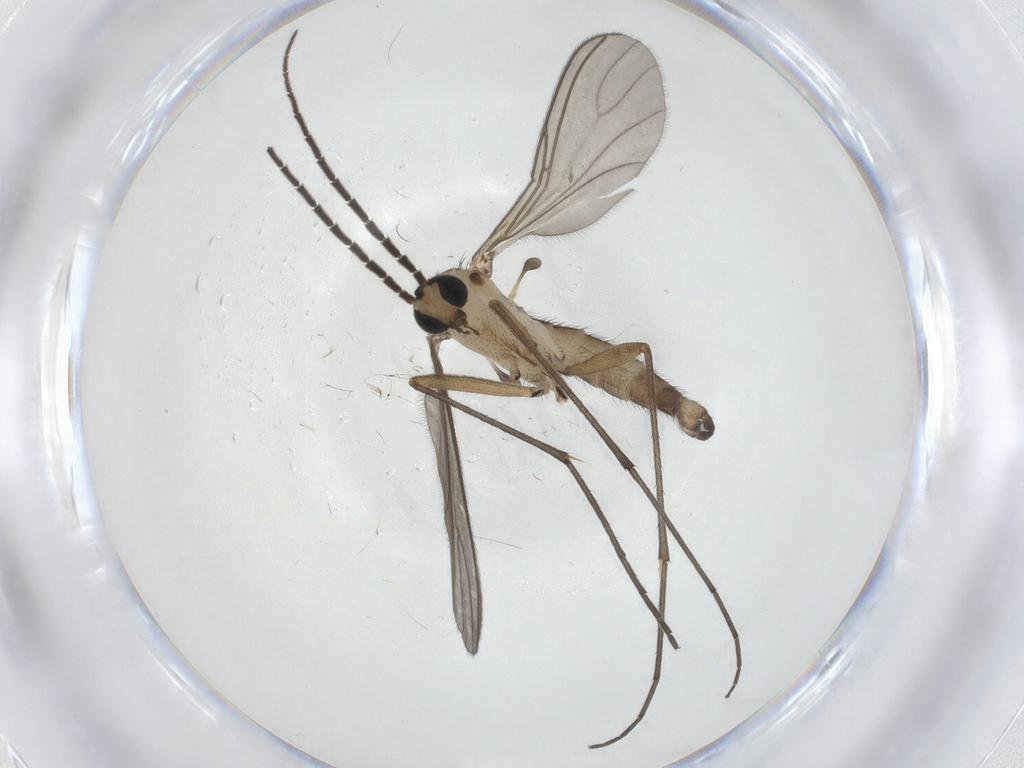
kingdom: Animalia
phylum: Arthropoda
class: Insecta
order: Diptera
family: Sciaridae
